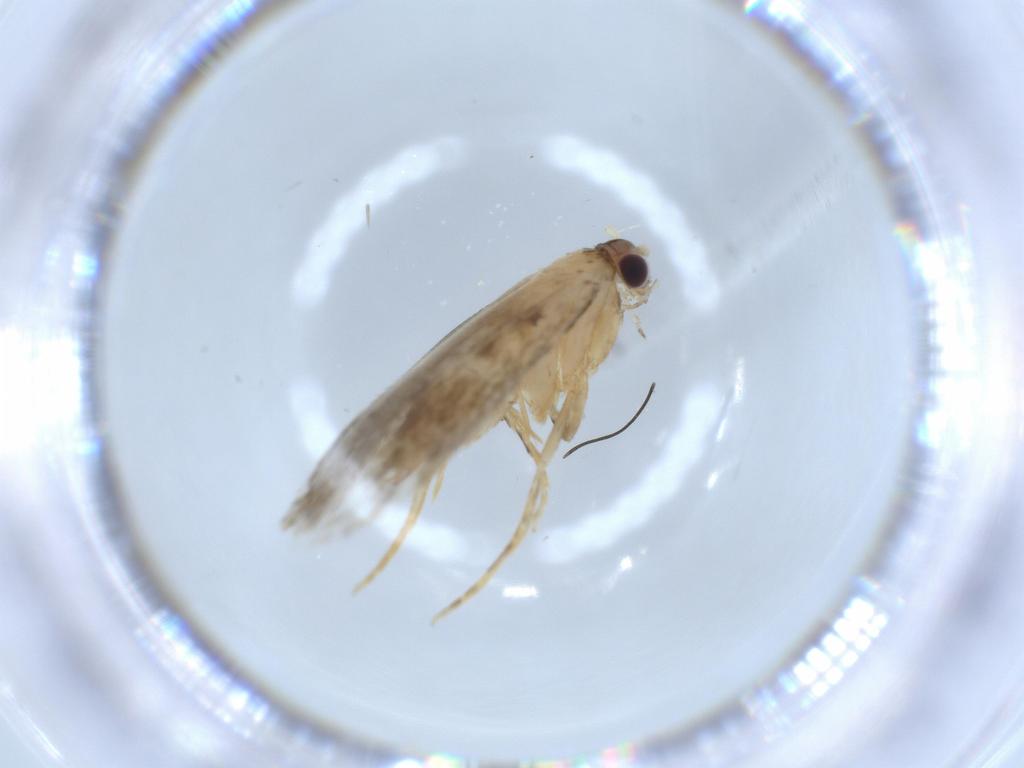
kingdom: Animalia
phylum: Arthropoda
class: Insecta
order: Lepidoptera
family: Tineidae
